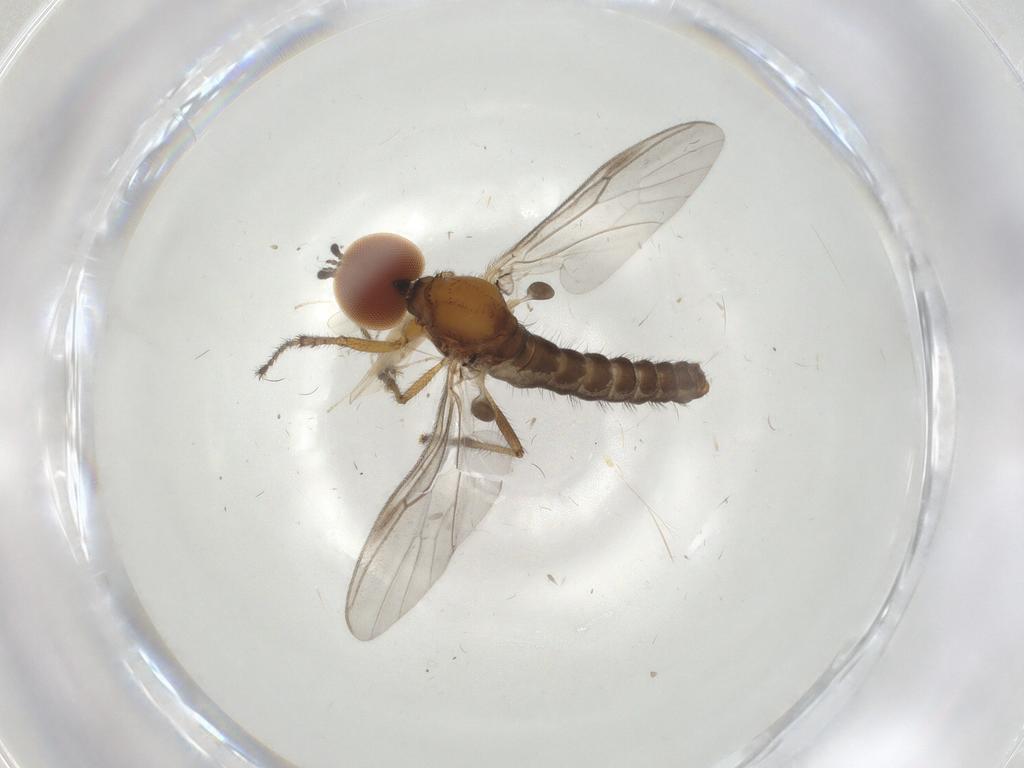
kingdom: Animalia
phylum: Arthropoda
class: Insecta
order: Diptera
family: Bibionidae
